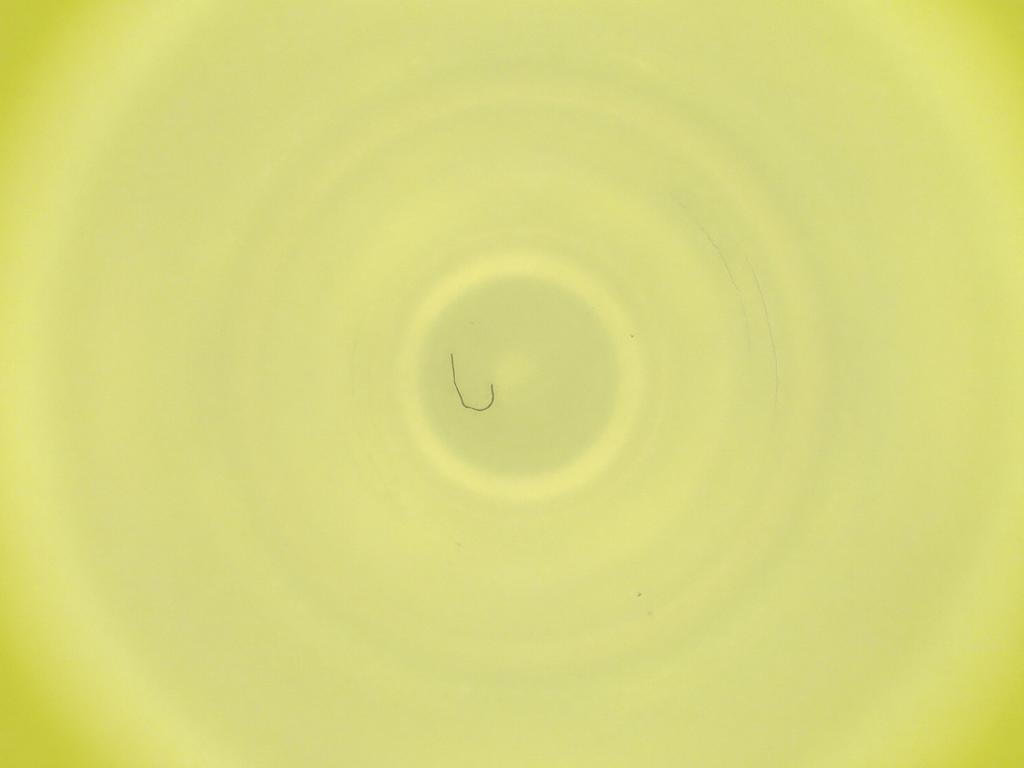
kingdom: Animalia
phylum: Arthropoda
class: Insecta
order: Diptera
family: Cecidomyiidae
